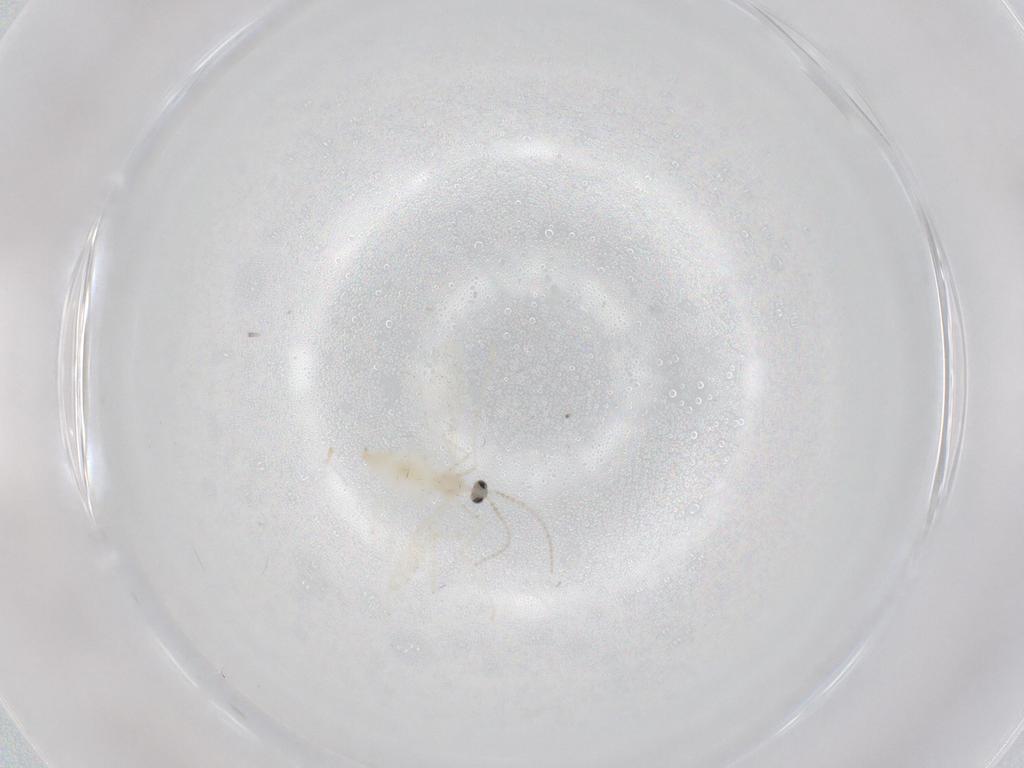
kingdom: Animalia
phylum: Arthropoda
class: Insecta
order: Diptera
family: Cecidomyiidae
